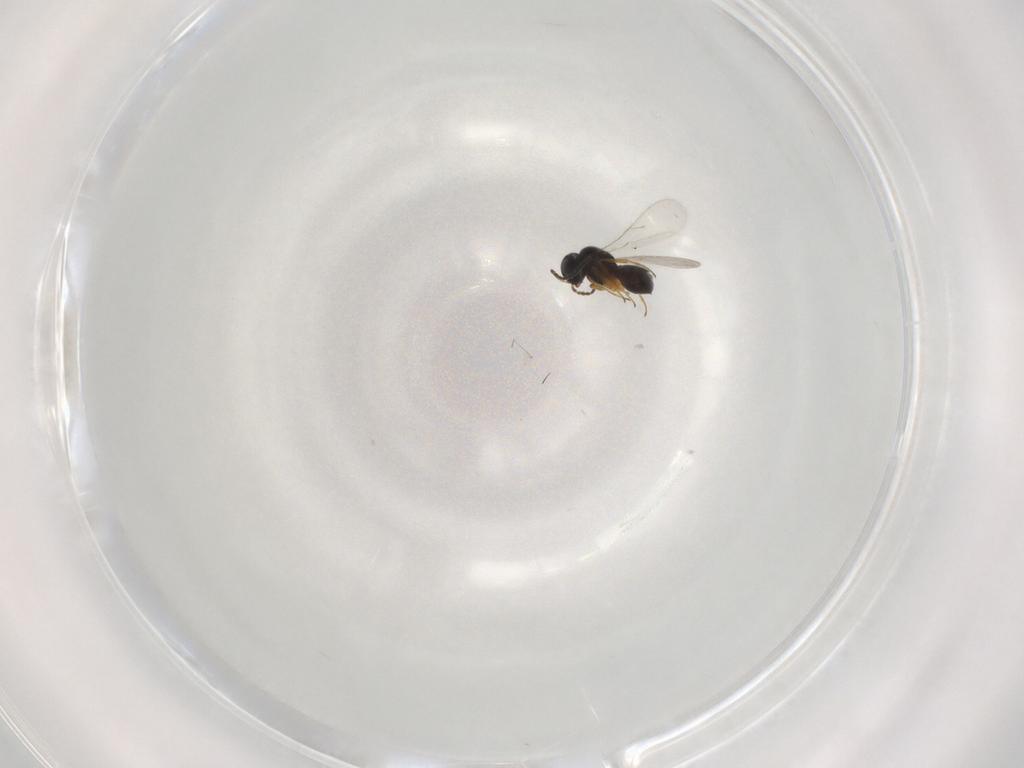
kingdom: Animalia
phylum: Arthropoda
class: Insecta
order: Hymenoptera
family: Scelionidae
